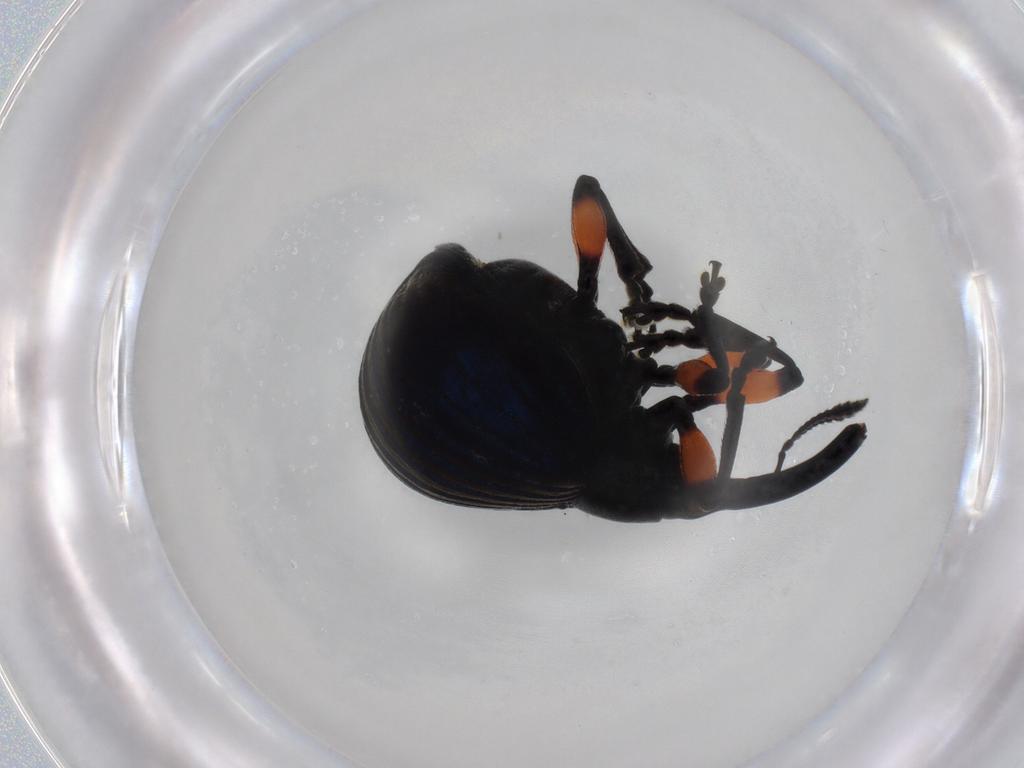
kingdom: Animalia
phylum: Arthropoda
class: Insecta
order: Coleoptera
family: Brentidae
